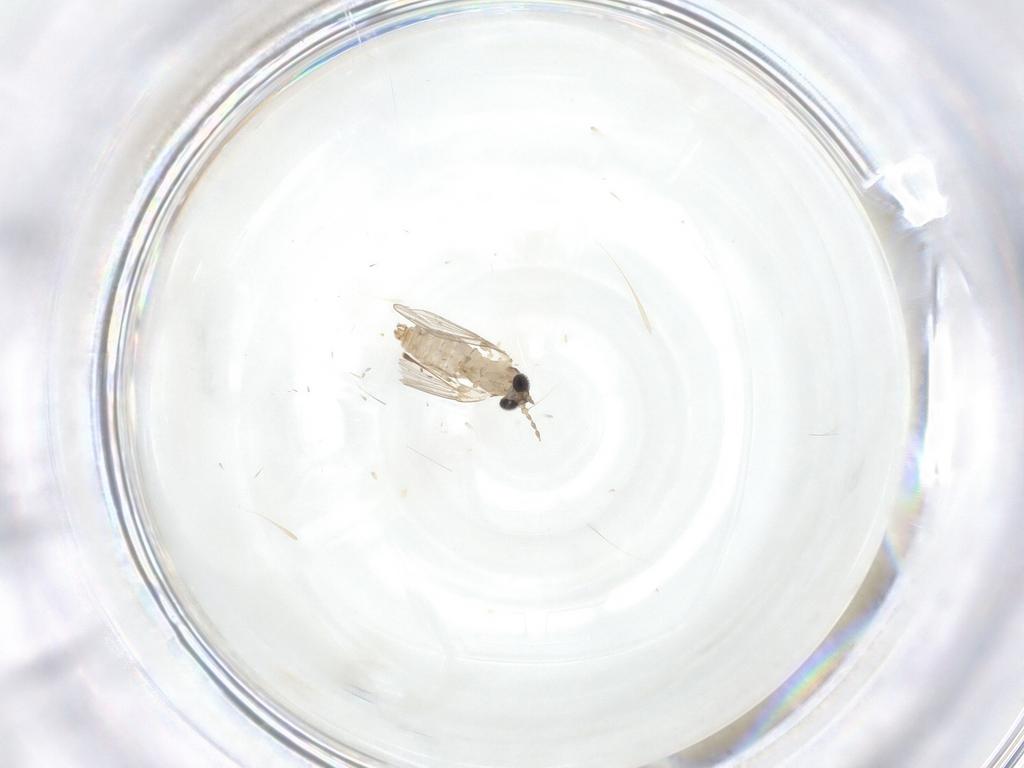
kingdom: Animalia
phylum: Arthropoda
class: Insecta
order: Diptera
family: Psychodidae
